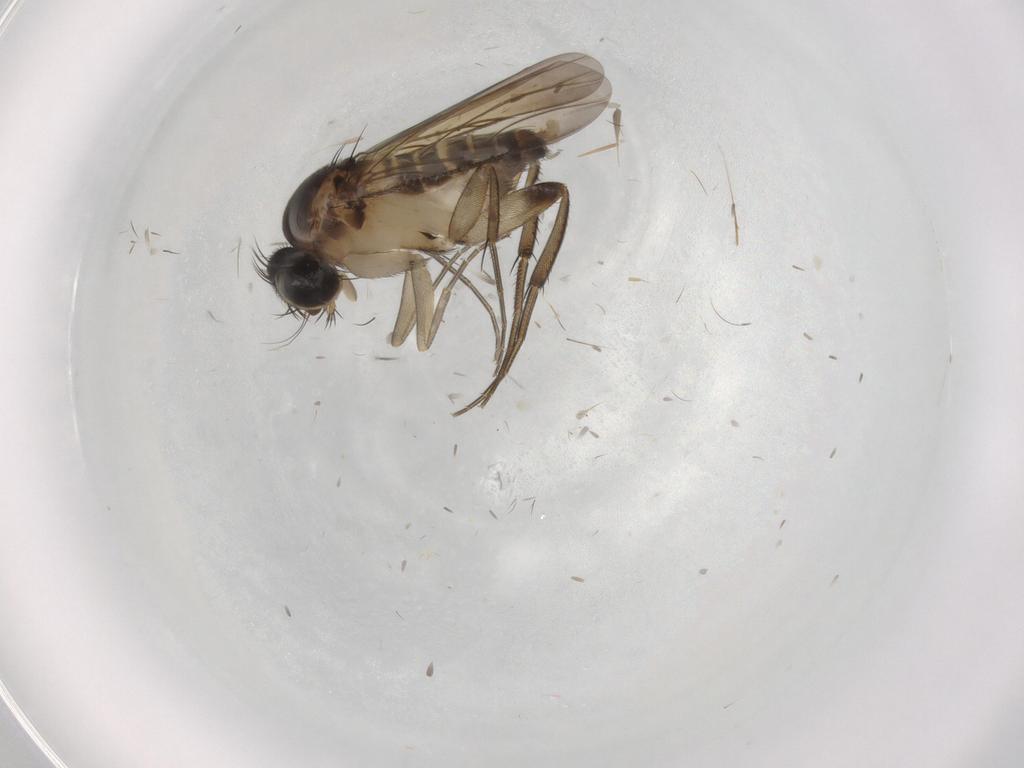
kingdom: Animalia
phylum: Arthropoda
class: Insecta
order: Diptera
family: Phoridae
